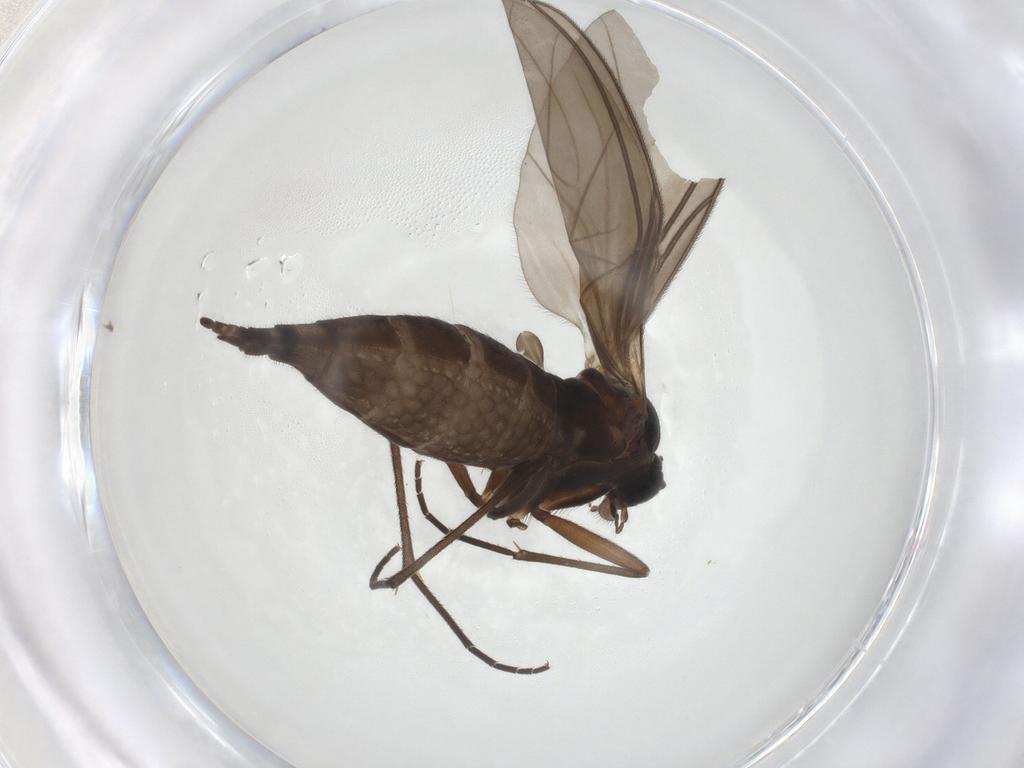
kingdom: Animalia
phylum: Arthropoda
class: Insecta
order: Diptera
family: Sciaridae
